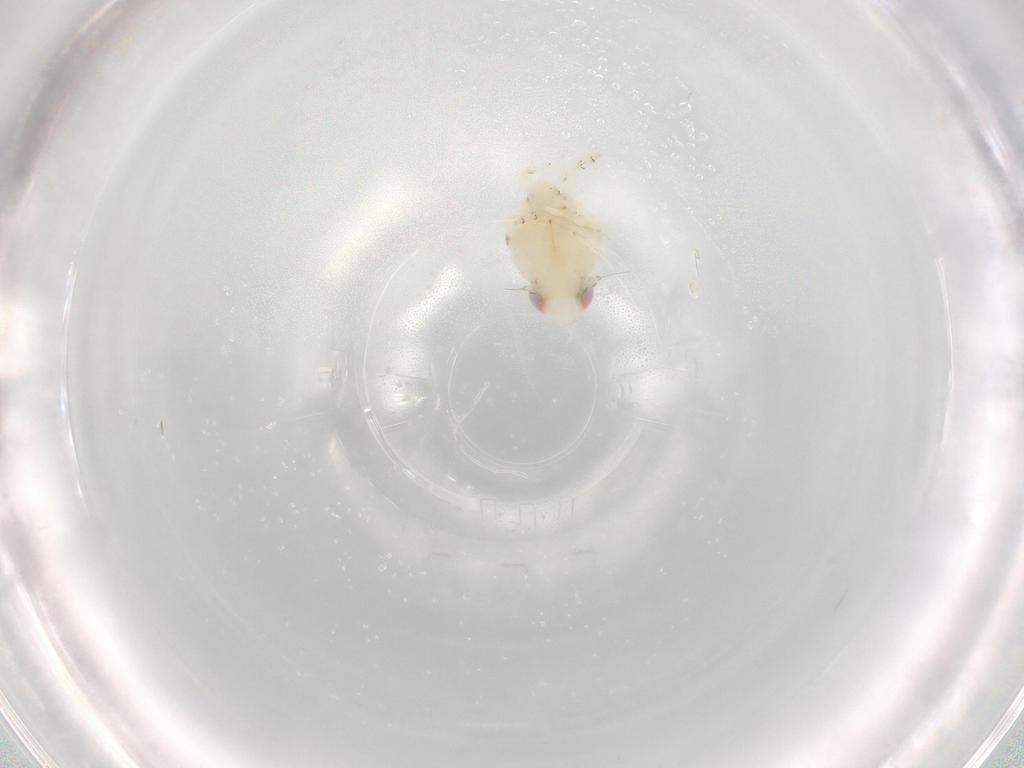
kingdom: Animalia
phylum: Arthropoda
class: Insecta
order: Hemiptera
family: Nogodinidae
